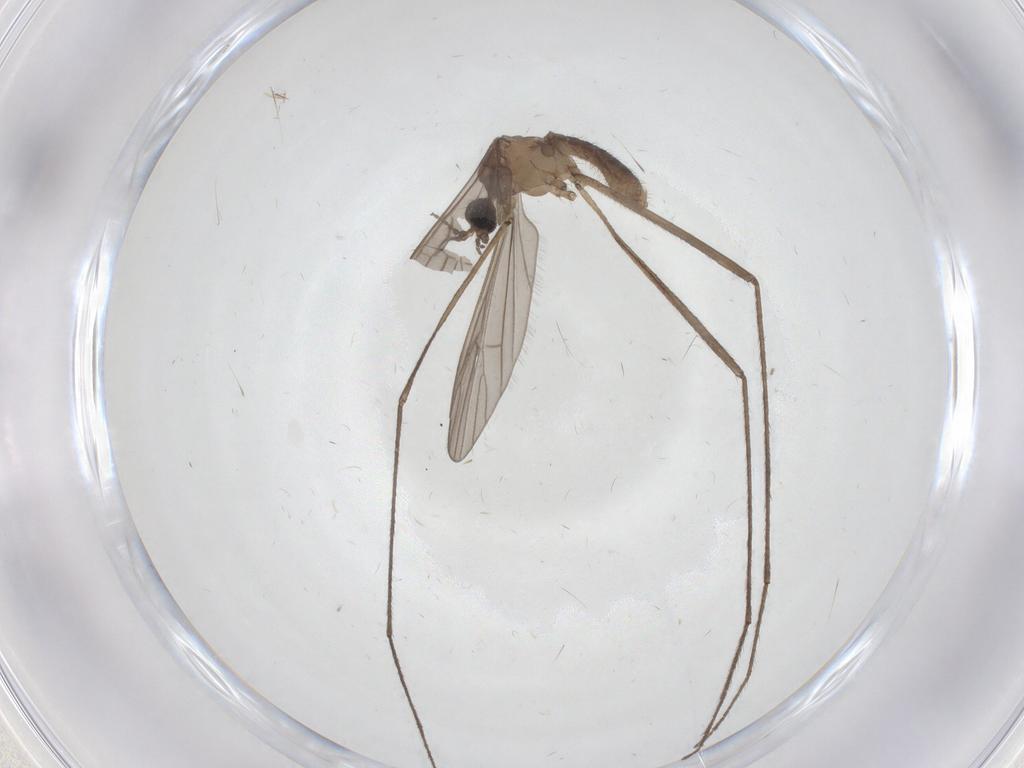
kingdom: Animalia
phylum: Arthropoda
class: Insecta
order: Diptera
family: Limoniidae
